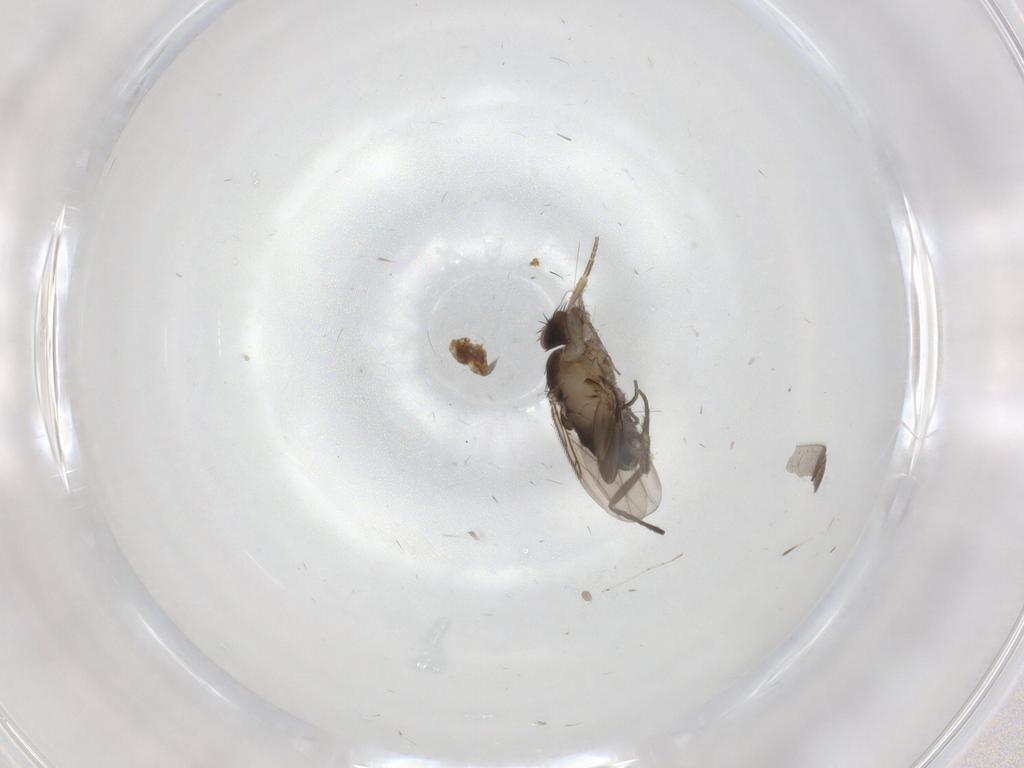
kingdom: Animalia
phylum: Arthropoda
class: Insecta
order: Diptera
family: Phoridae
